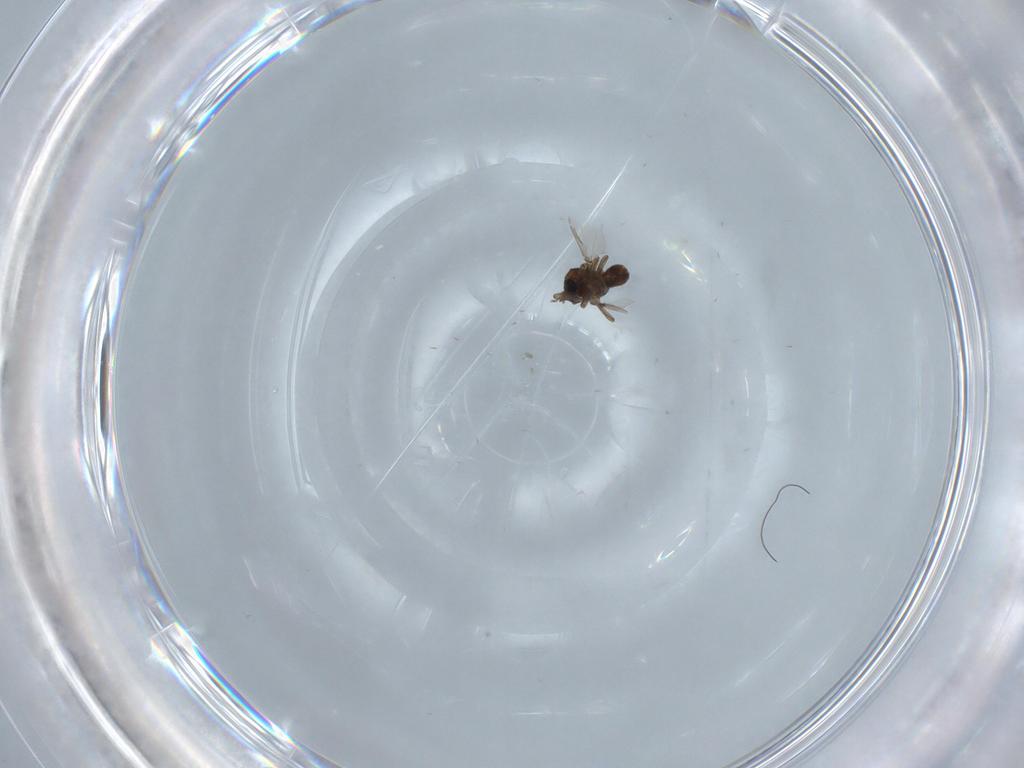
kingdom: Animalia
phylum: Arthropoda
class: Insecta
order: Diptera
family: Ceratopogonidae
